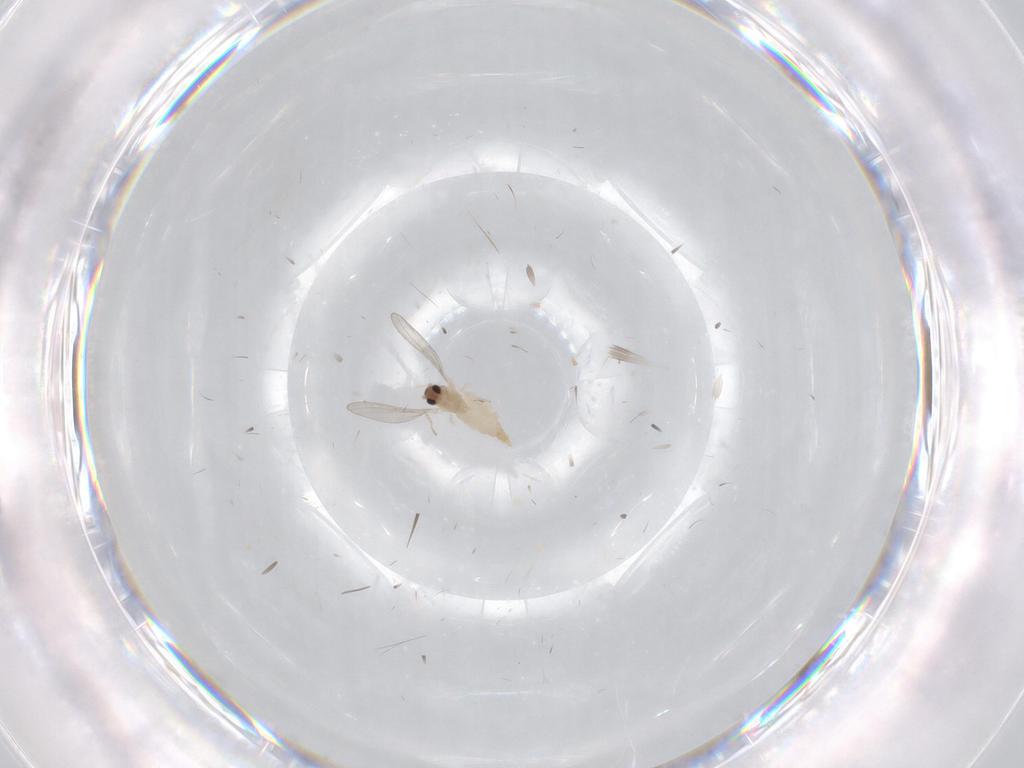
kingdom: Animalia
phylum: Arthropoda
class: Insecta
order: Diptera
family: Cecidomyiidae
